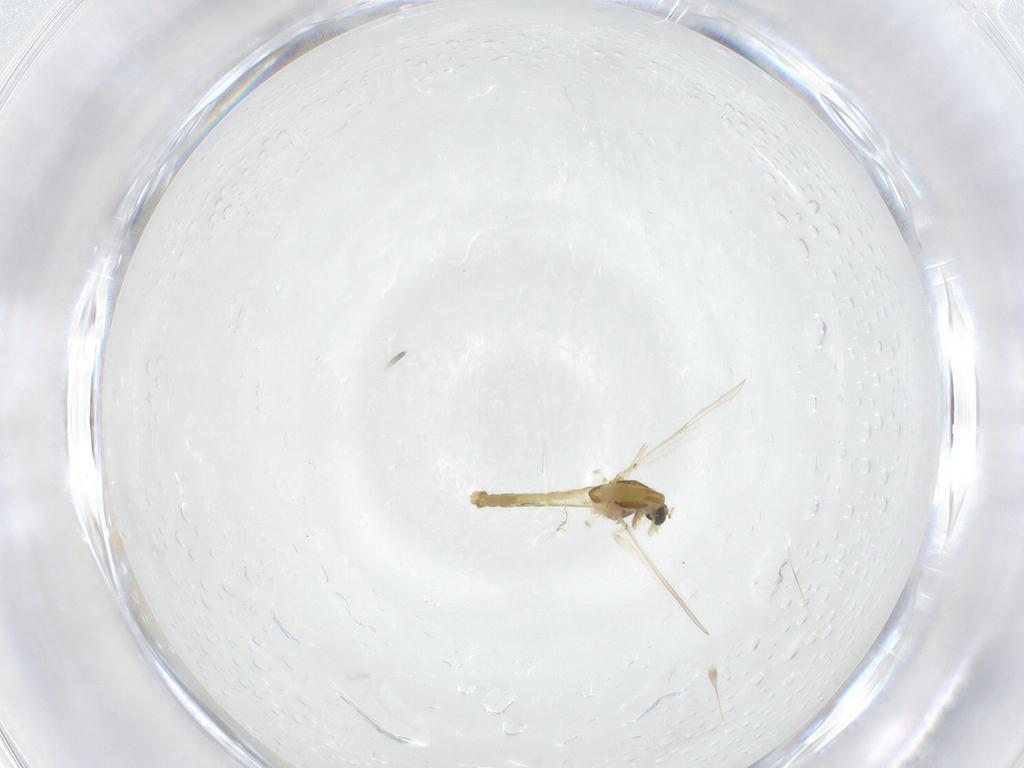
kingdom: Animalia
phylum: Arthropoda
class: Insecta
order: Diptera
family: Chironomidae
